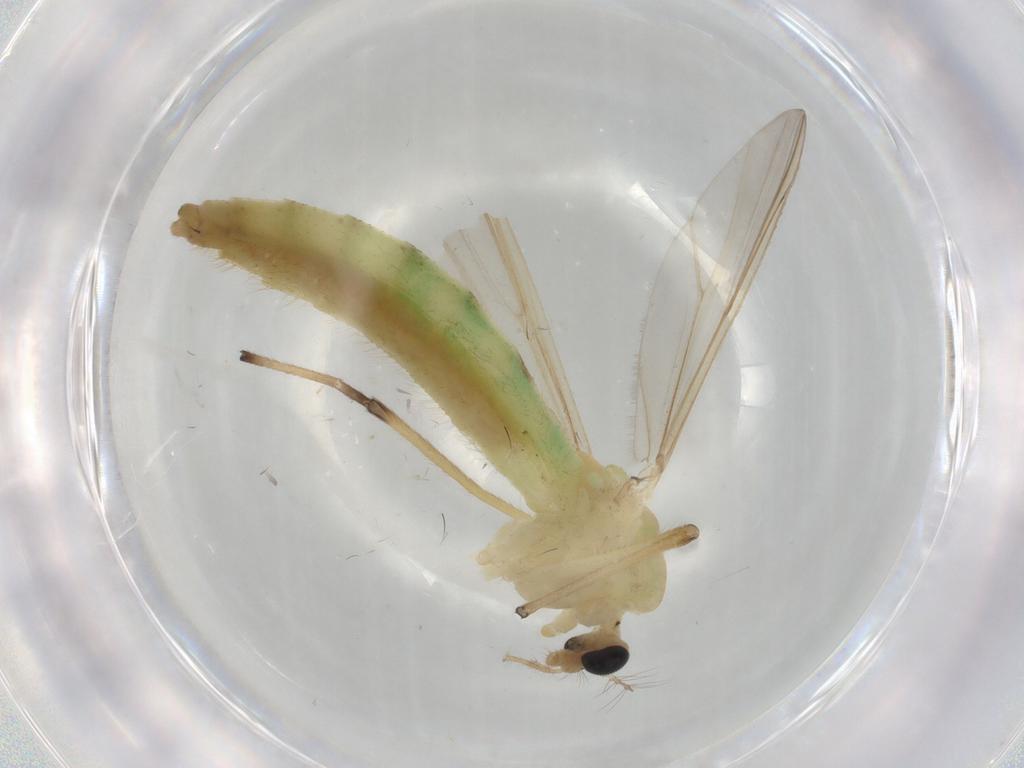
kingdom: Animalia
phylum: Arthropoda
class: Insecta
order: Diptera
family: Chironomidae
